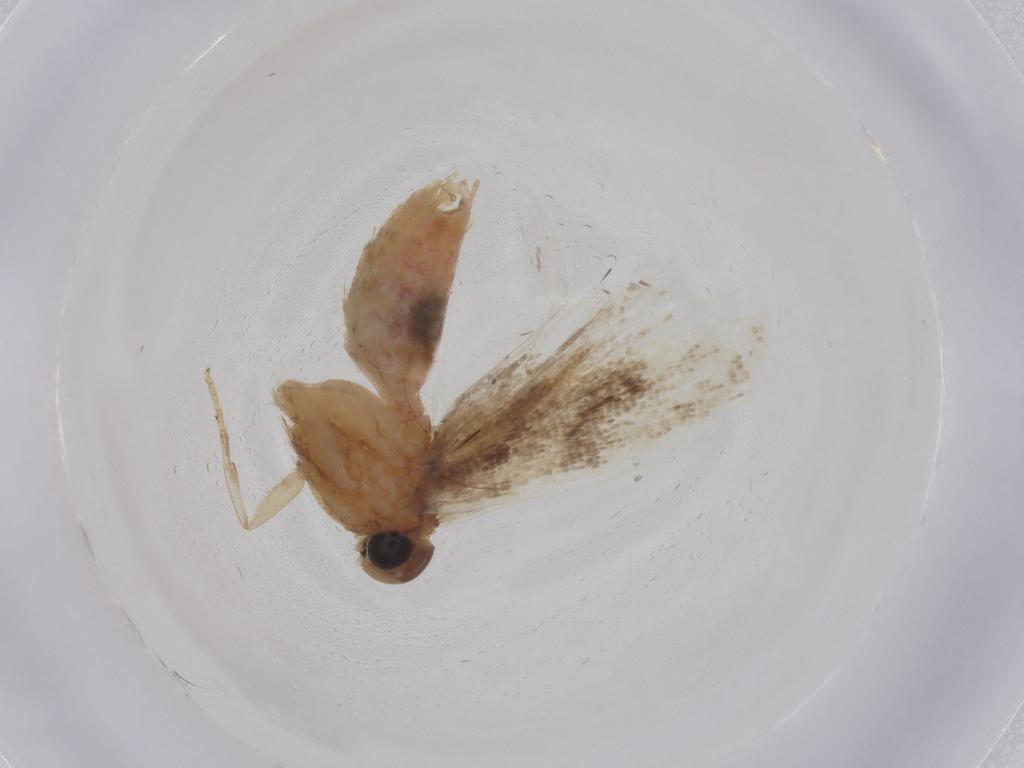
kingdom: Animalia
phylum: Arthropoda
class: Insecta
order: Lepidoptera
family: Gelechiidae
